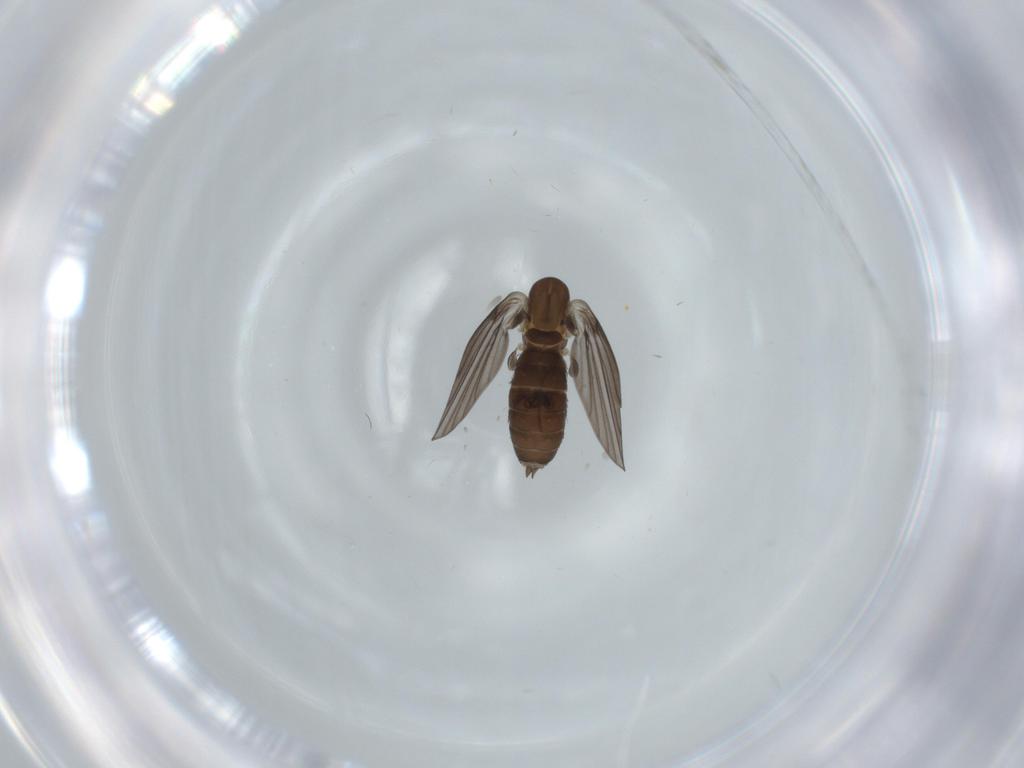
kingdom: Animalia
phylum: Arthropoda
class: Insecta
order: Diptera
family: Psychodidae
